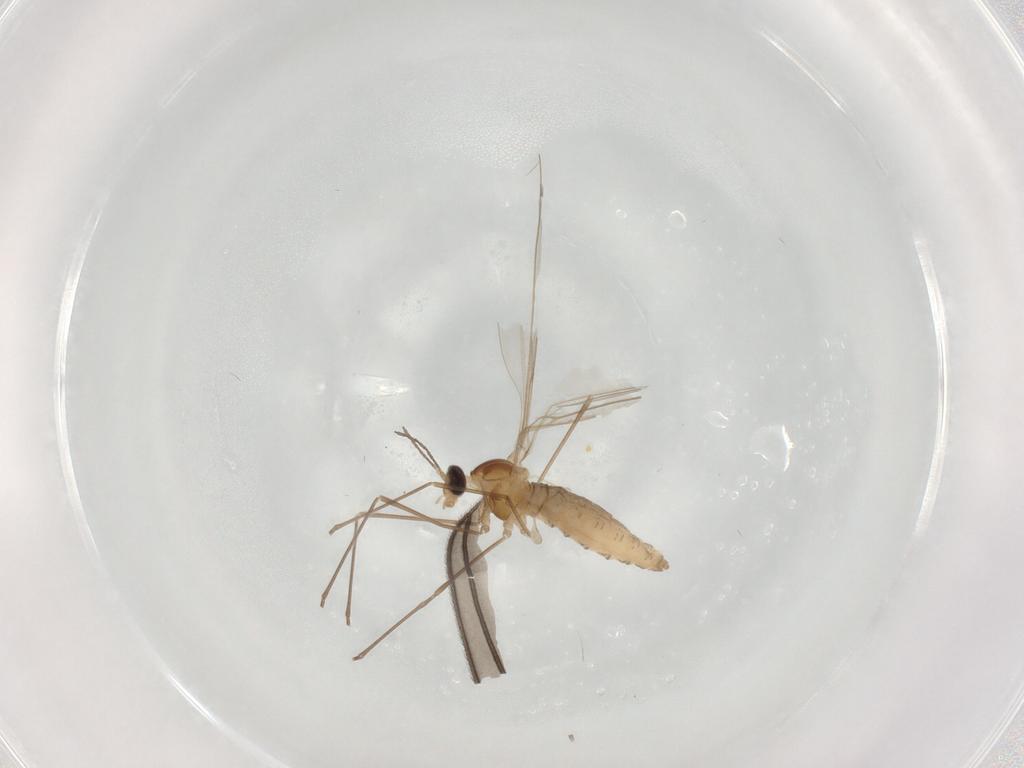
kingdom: Animalia
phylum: Arthropoda
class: Insecta
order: Diptera
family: Cecidomyiidae
